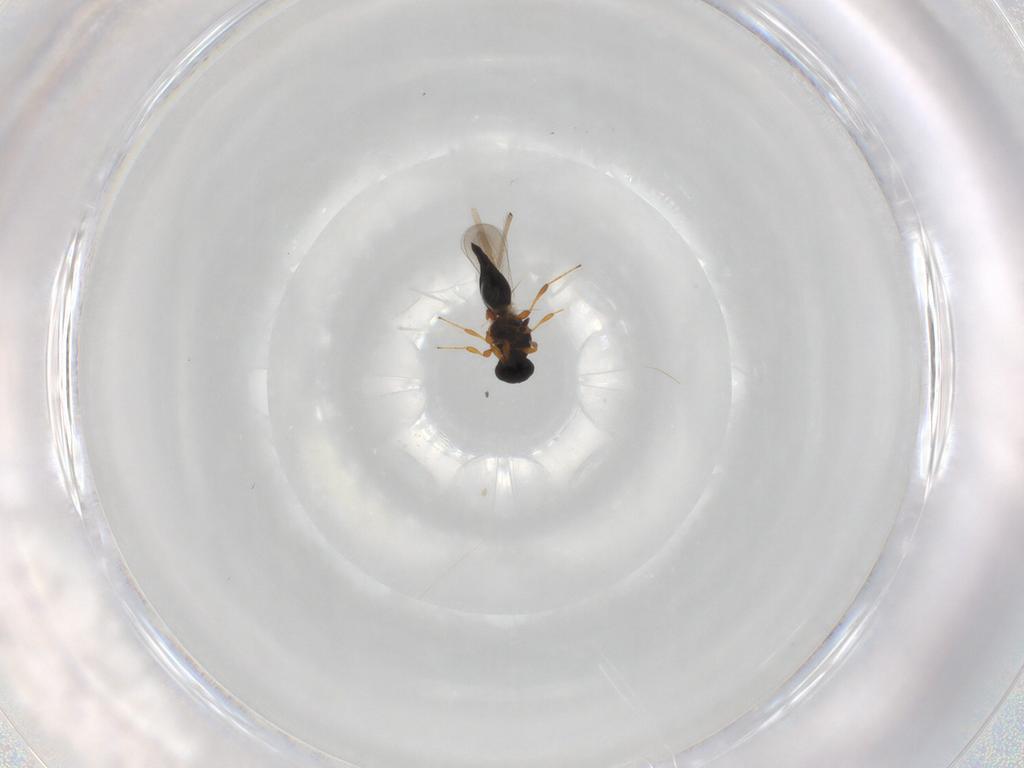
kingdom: Animalia
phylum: Arthropoda
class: Insecta
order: Hymenoptera
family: Platygastridae
